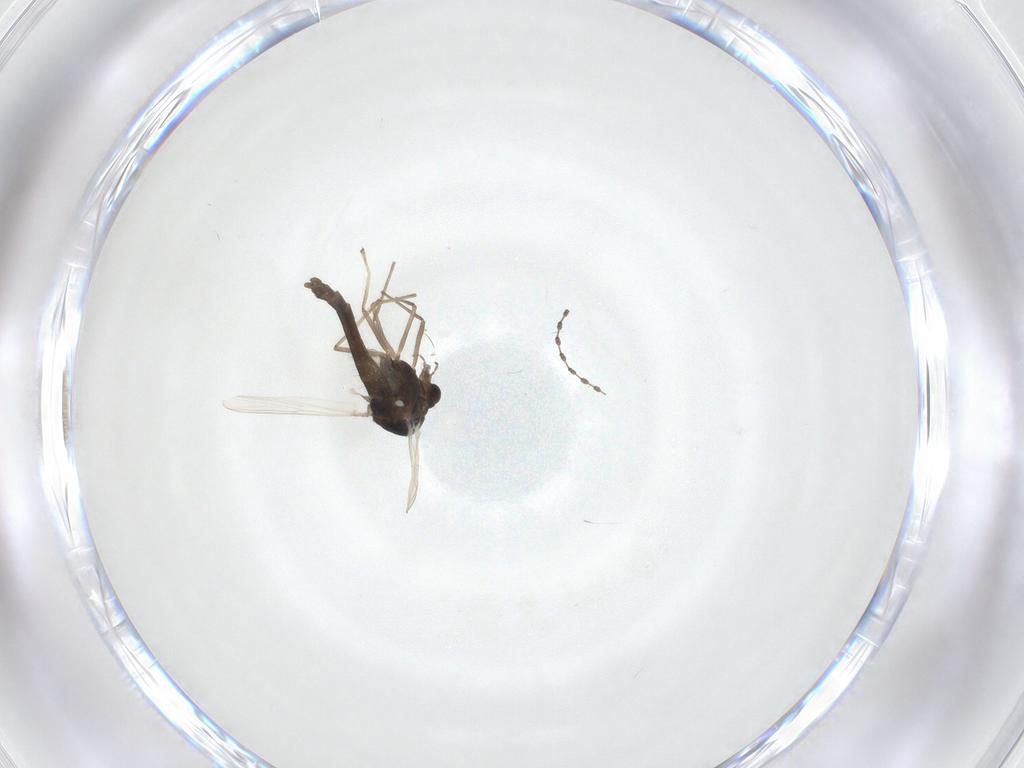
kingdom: Animalia
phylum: Arthropoda
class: Insecta
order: Diptera
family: Chironomidae
